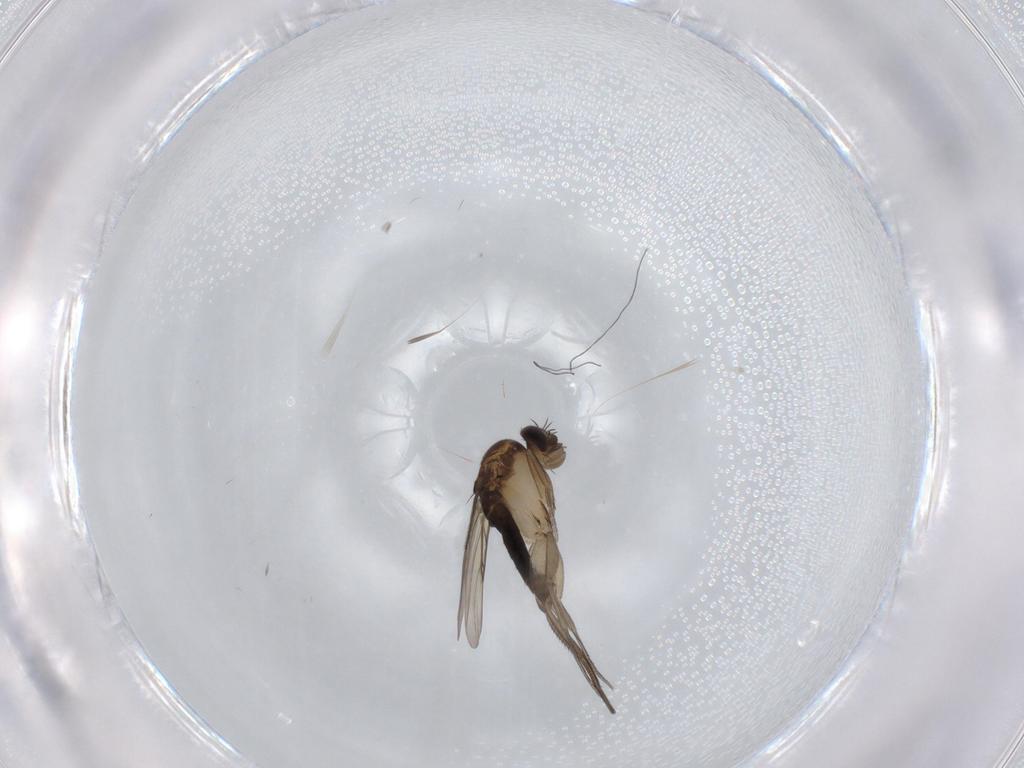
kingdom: Animalia
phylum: Arthropoda
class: Insecta
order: Diptera
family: Phoridae
